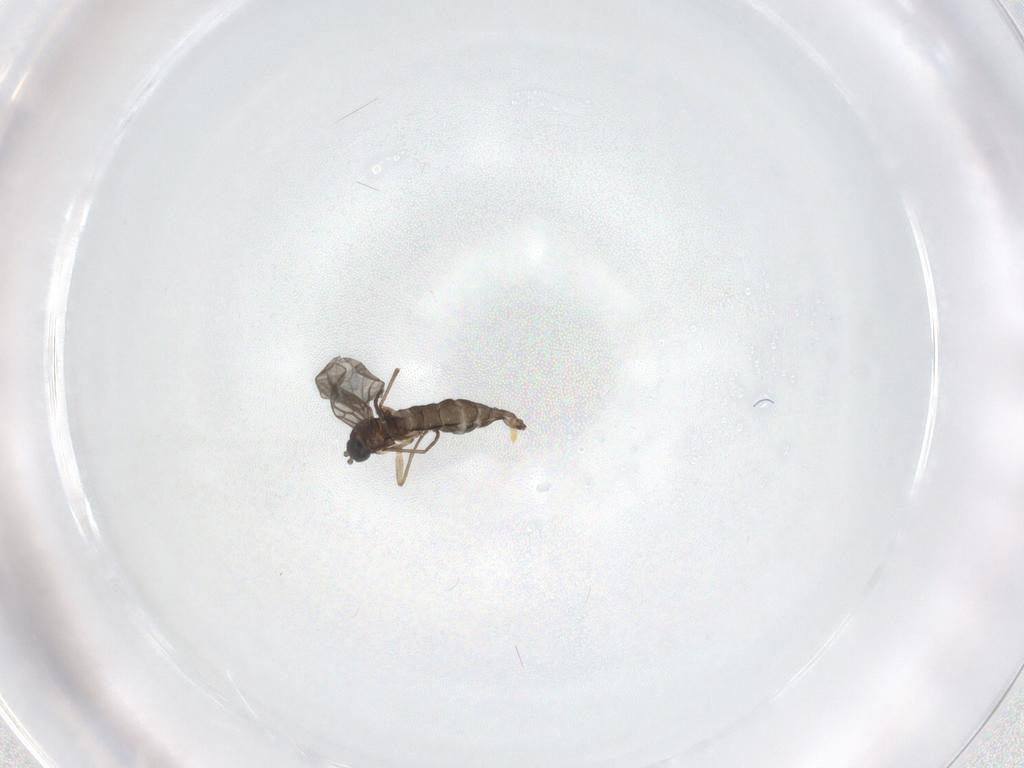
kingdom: Animalia
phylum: Arthropoda
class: Insecta
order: Diptera
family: Sciaridae
